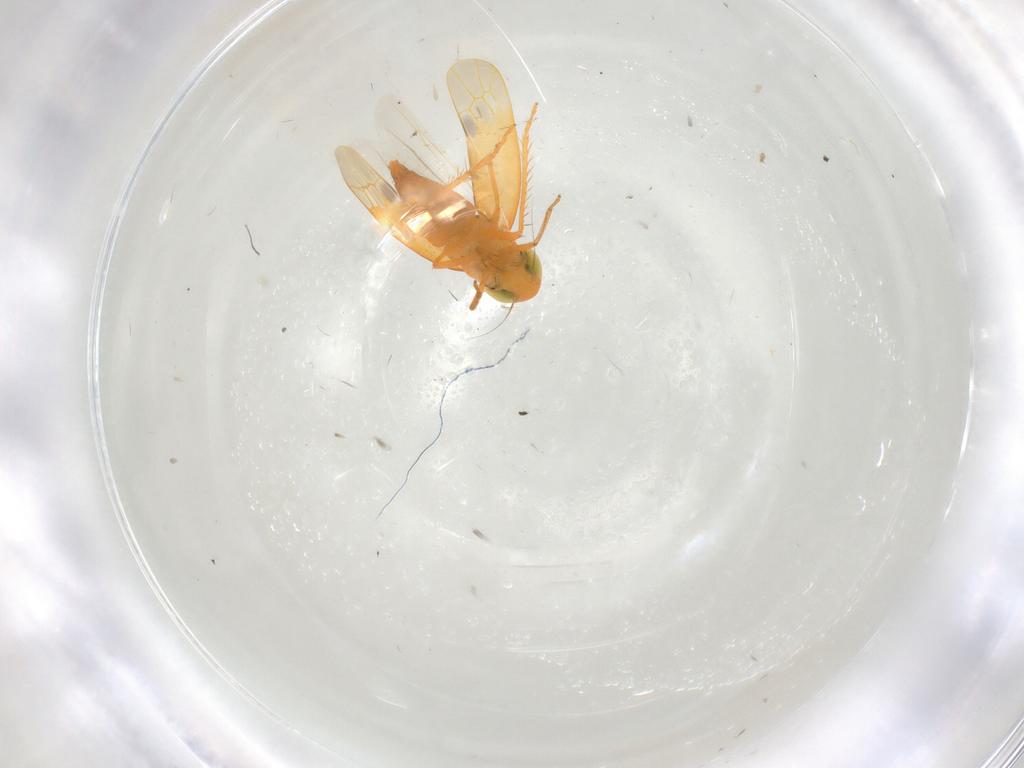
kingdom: Animalia
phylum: Arthropoda
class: Insecta
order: Hemiptera
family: Cicadellidae
